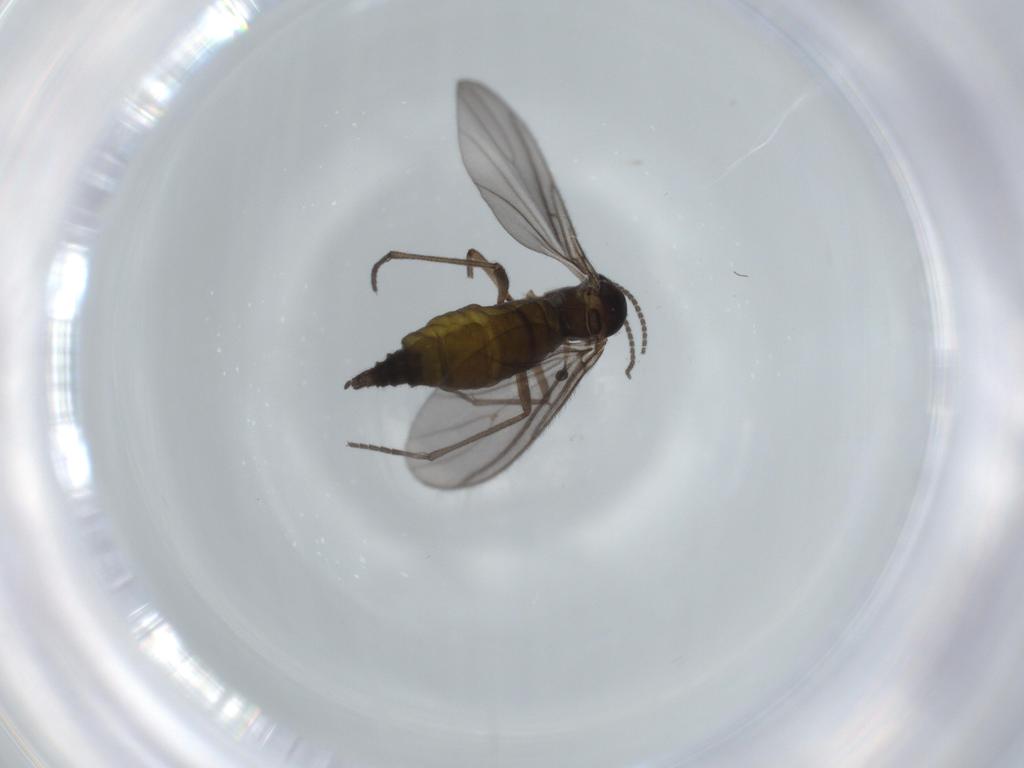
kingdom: Animalia
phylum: Arthropoda
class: Insecta
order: Diptera
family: Sciaridae
